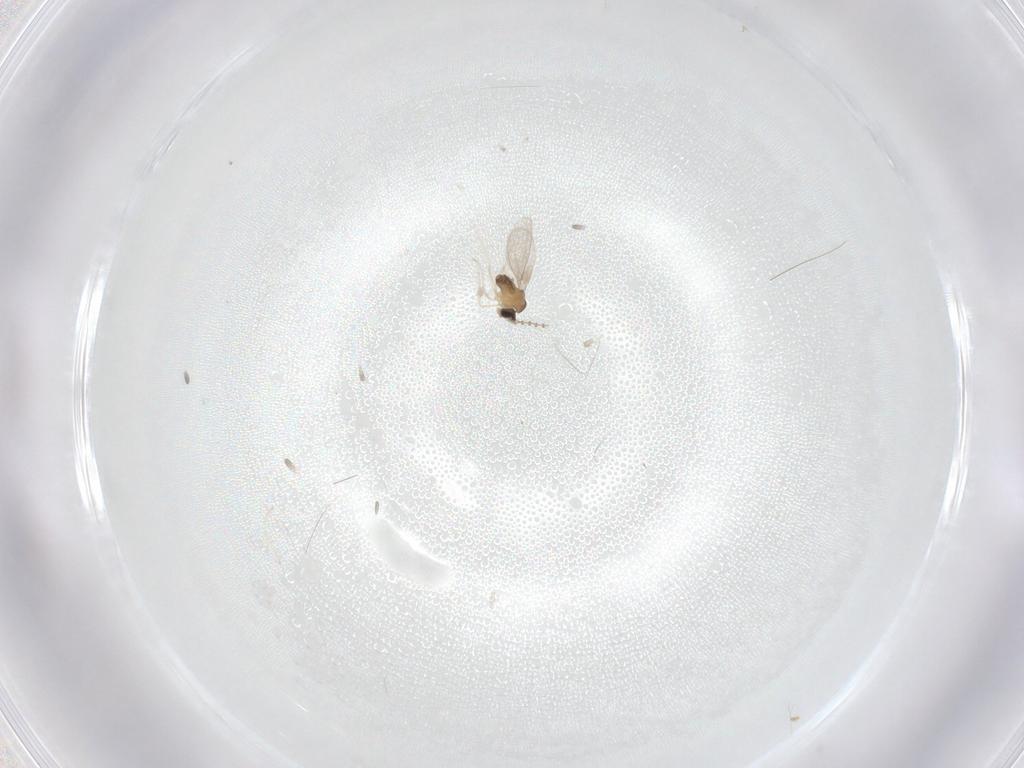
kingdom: Animalia
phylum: Arthropoda
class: Insecta
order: Diptera
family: Cecidomyiidae
